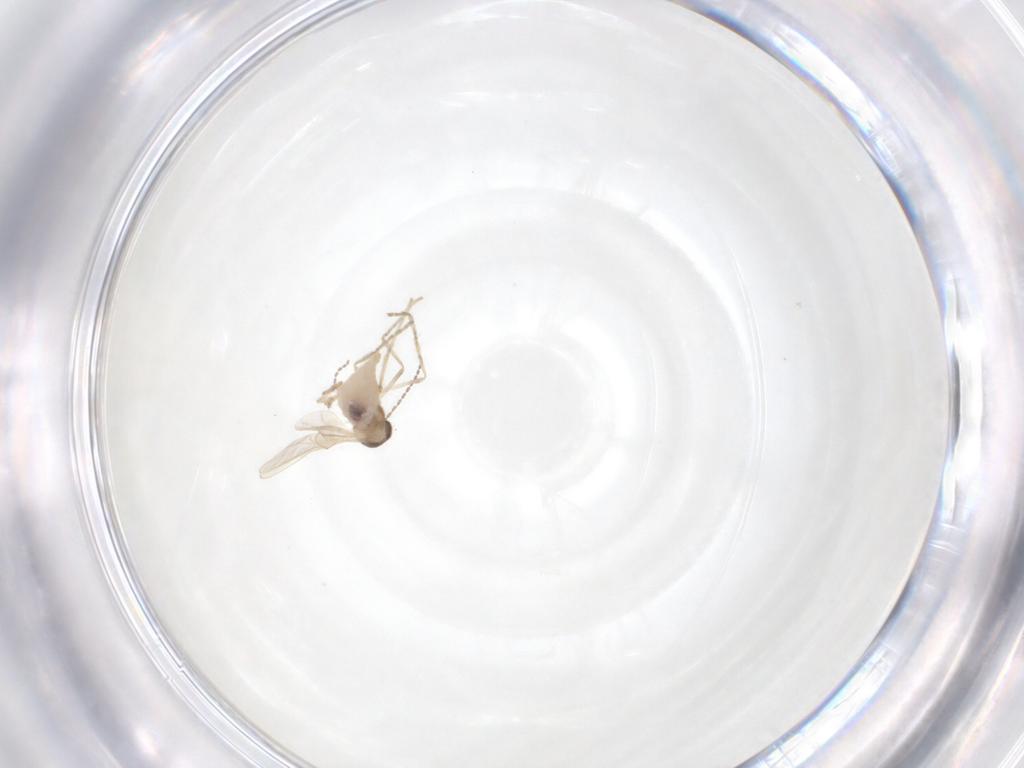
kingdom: Animalia
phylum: Arthropoda
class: Insecta
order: Diptera
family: Cecidomyiidae
